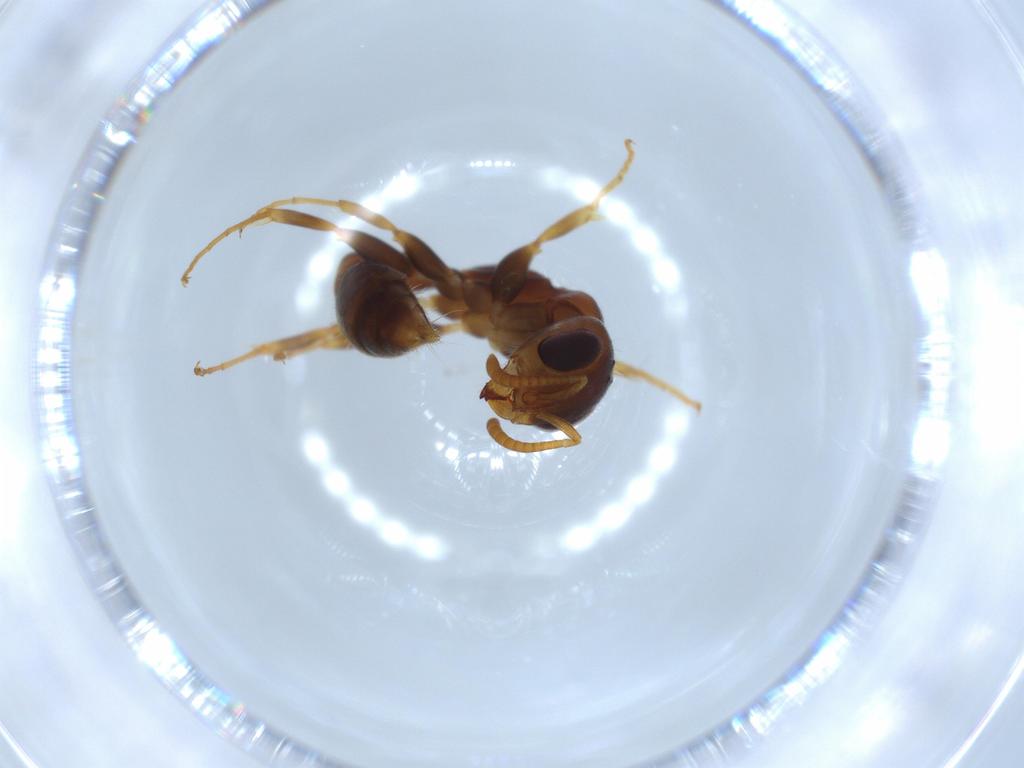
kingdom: Animalia
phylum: Arthropoda
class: Insecta
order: Hymenoptera
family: Formicidae
